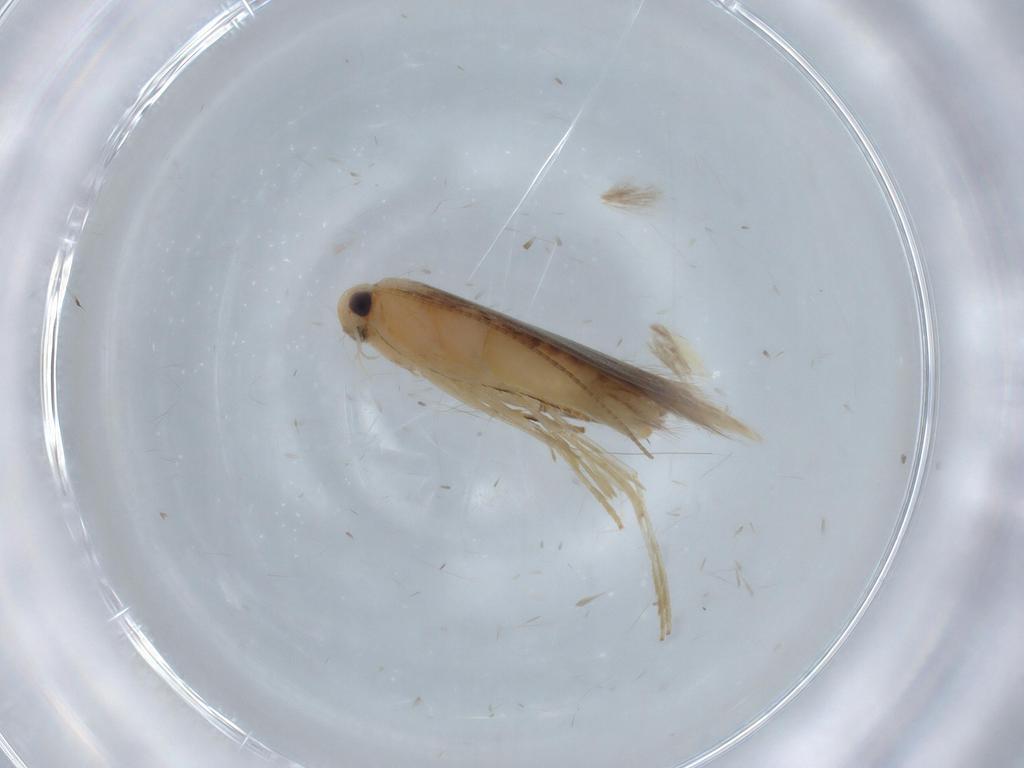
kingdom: Animalia
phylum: Arthropoda
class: Insecta
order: Lepidoptera
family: Gracillariidae
